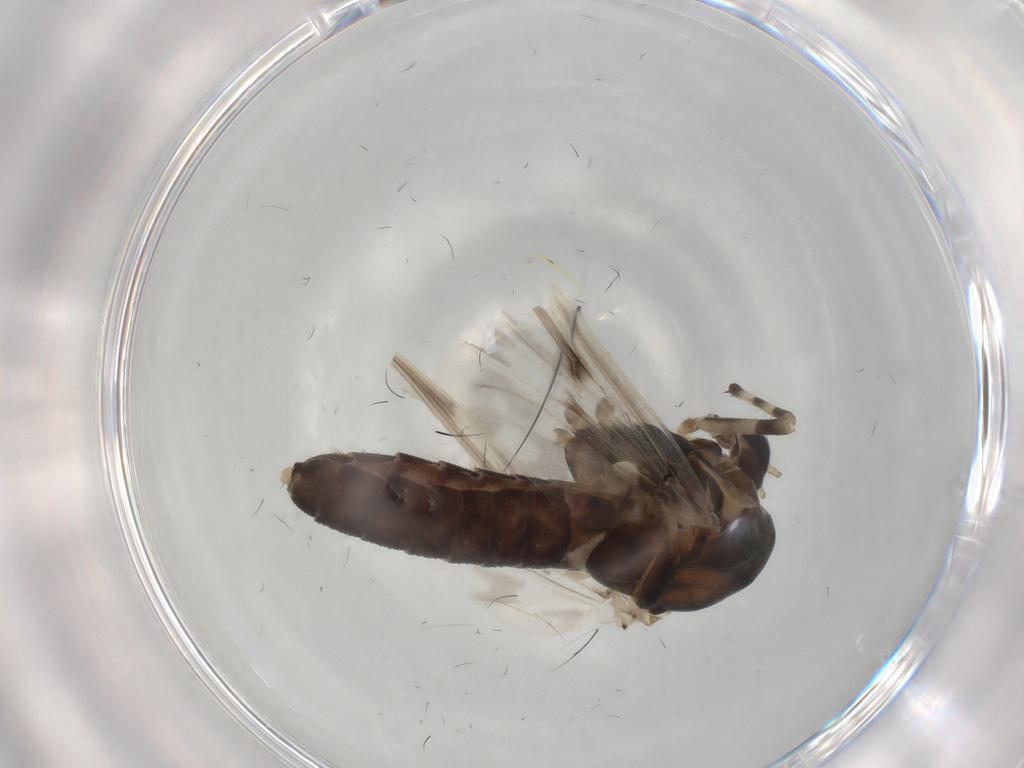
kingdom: Animalia
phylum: Arthropoda
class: Insecta
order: Diptera
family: Chironomidae
